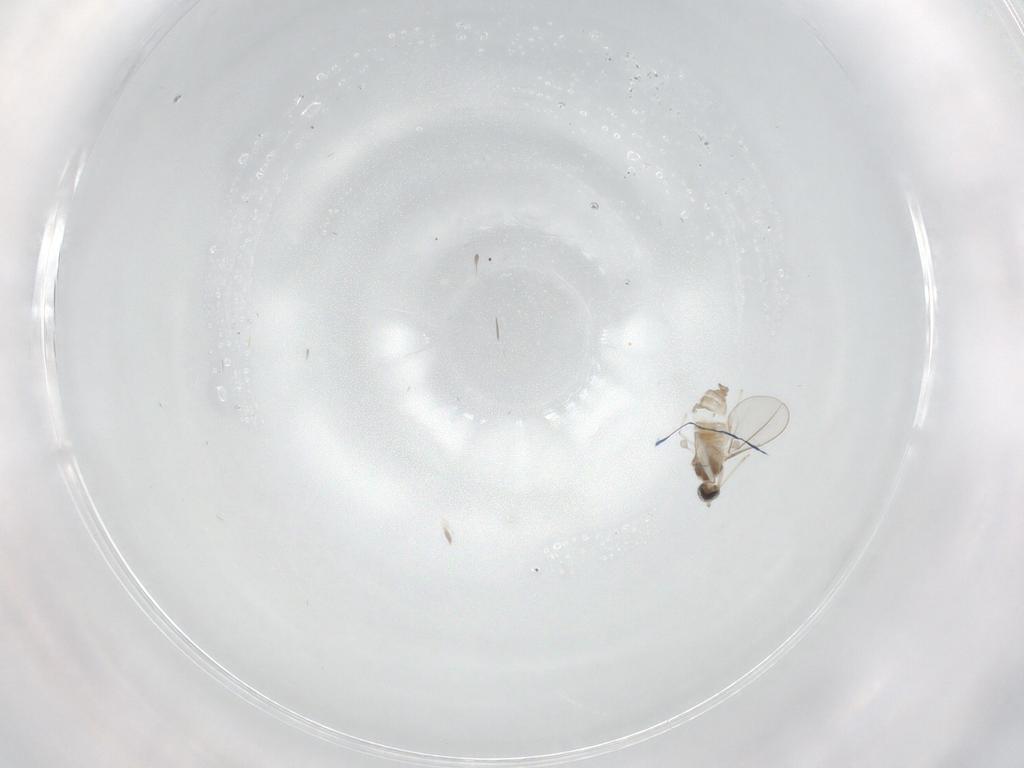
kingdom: Animalia
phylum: Arthropoda
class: Insecta
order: Diptera
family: Cecidomyiidae
